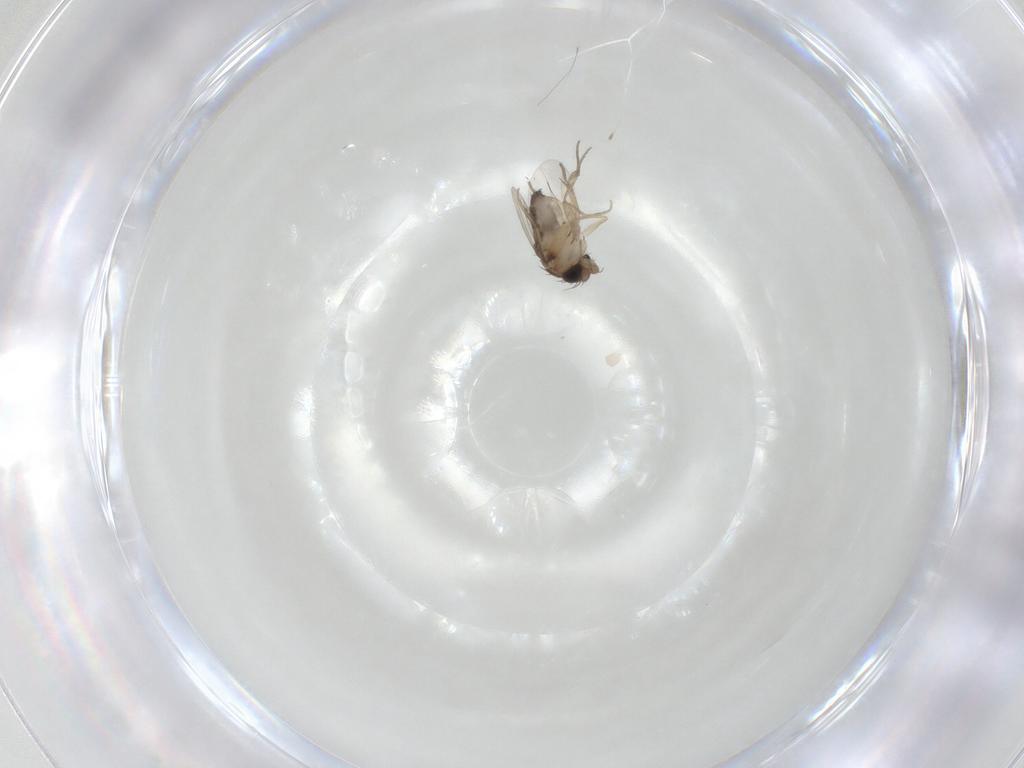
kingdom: Animalia
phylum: Arthropoda
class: Insecta
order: Diptera
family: Phoridae
